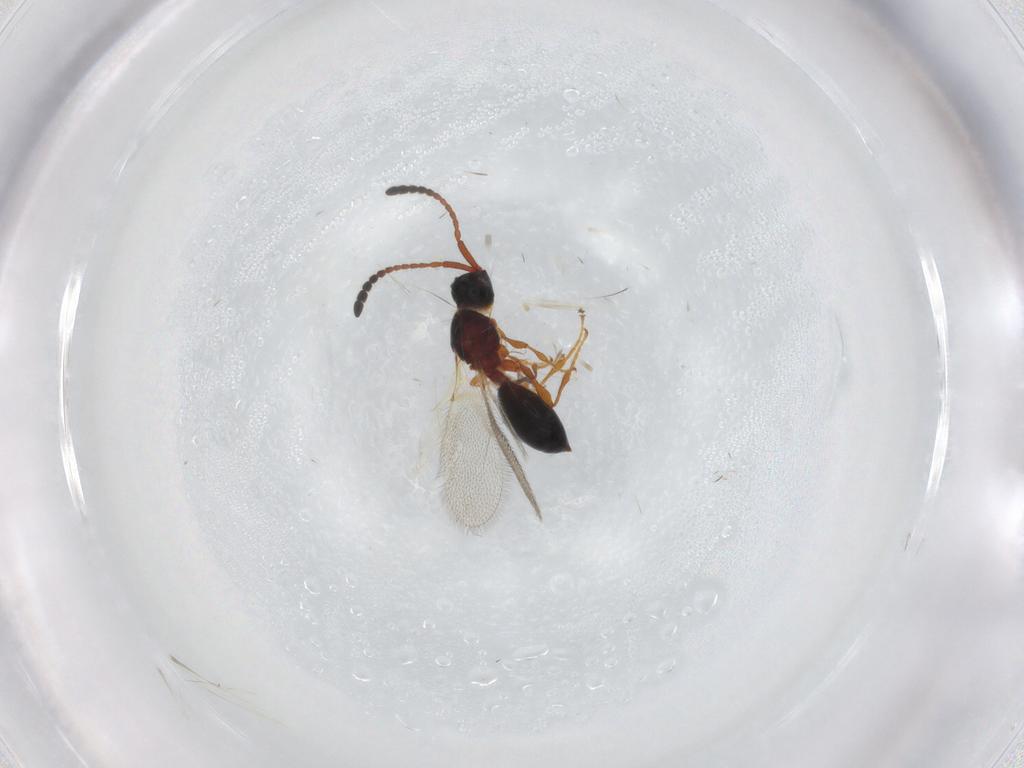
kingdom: Animalia
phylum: Arthropoda
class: Insecta
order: Hymenoptera
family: Diapriidae
